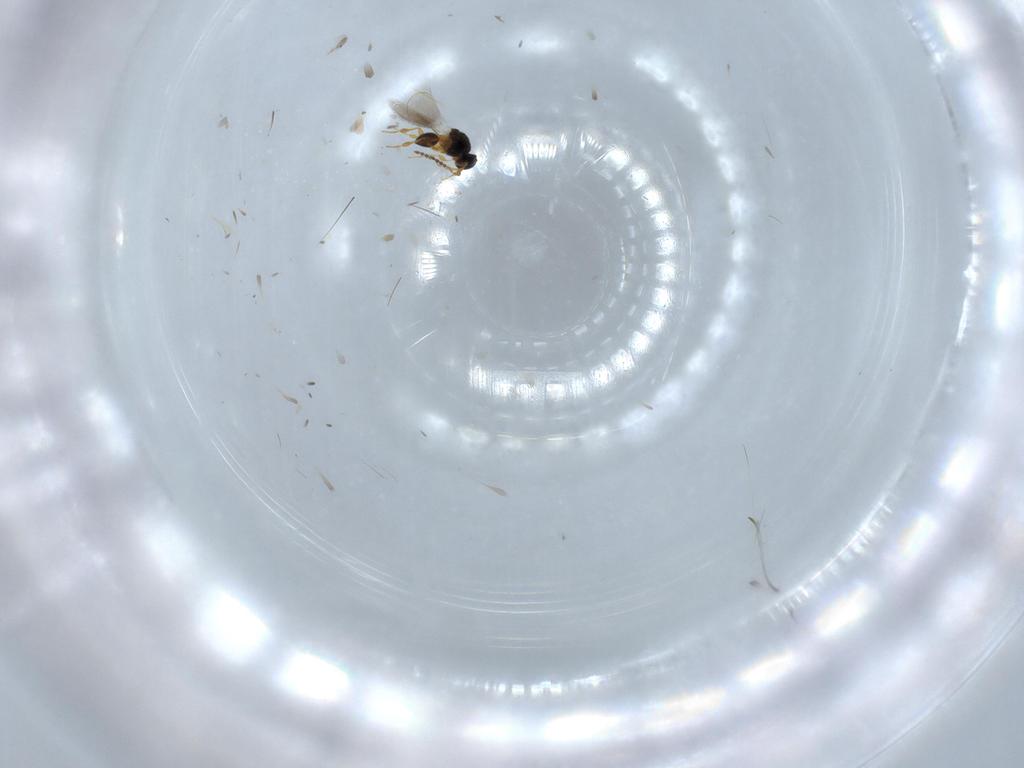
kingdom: Animalia
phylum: Arthropoda
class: Insecta
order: Hymenoptera
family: Platygastridae
